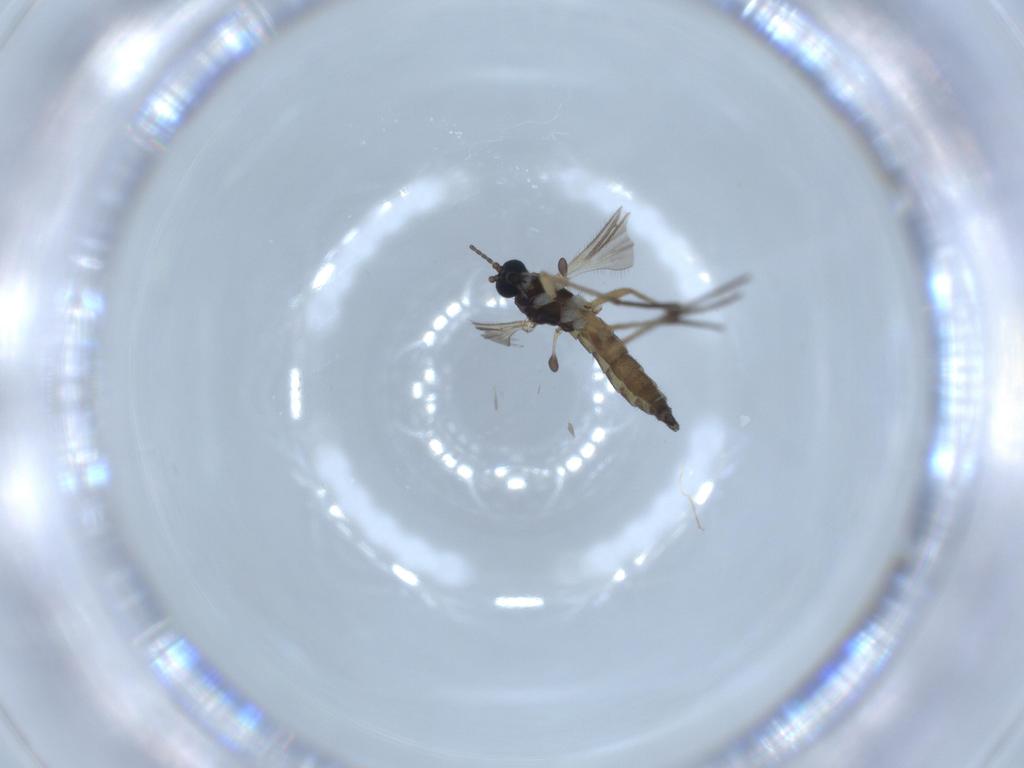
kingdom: Animalia
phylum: Arthropoda
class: Insecta
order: Diptera
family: Sciaridae
